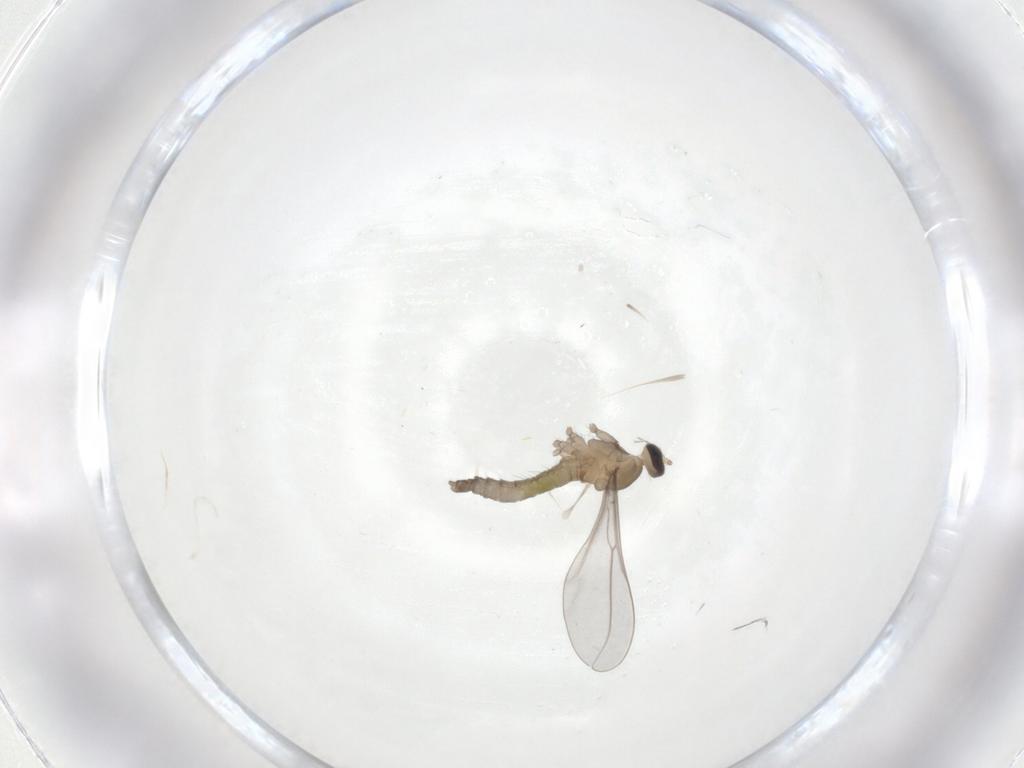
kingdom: Animalia
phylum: Arthropoda
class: Insecta
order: Diptera
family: Cecidomyiidae
